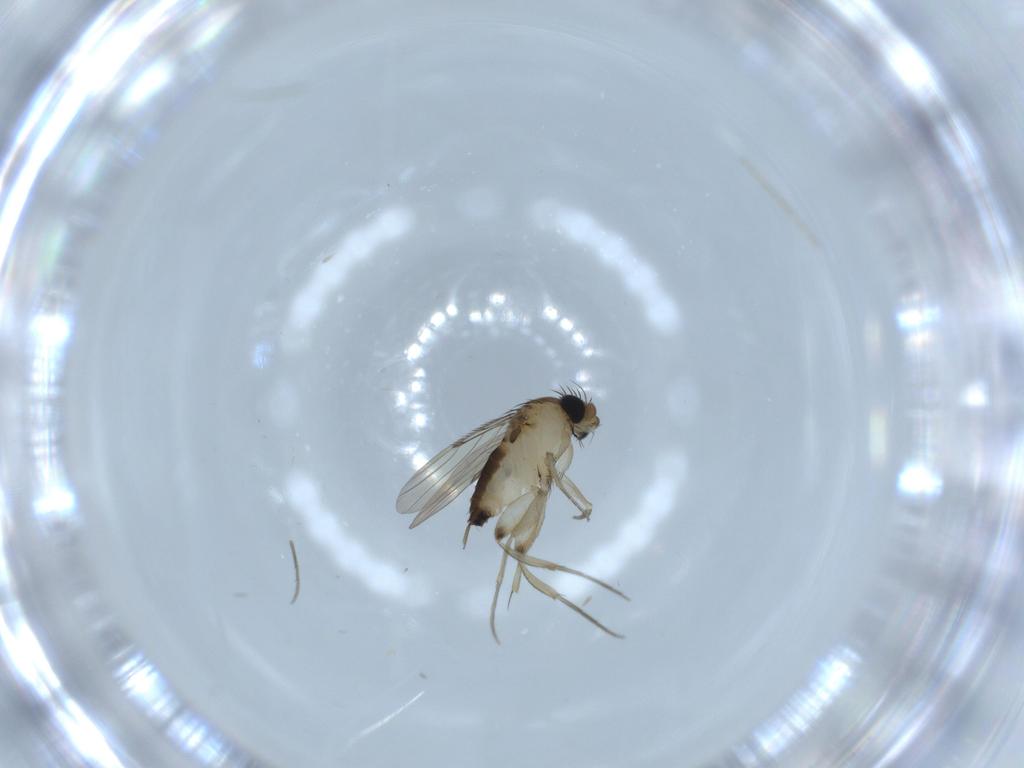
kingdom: Animalia
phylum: Arthropoda
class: Insecta
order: Diptera
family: Phoridae
